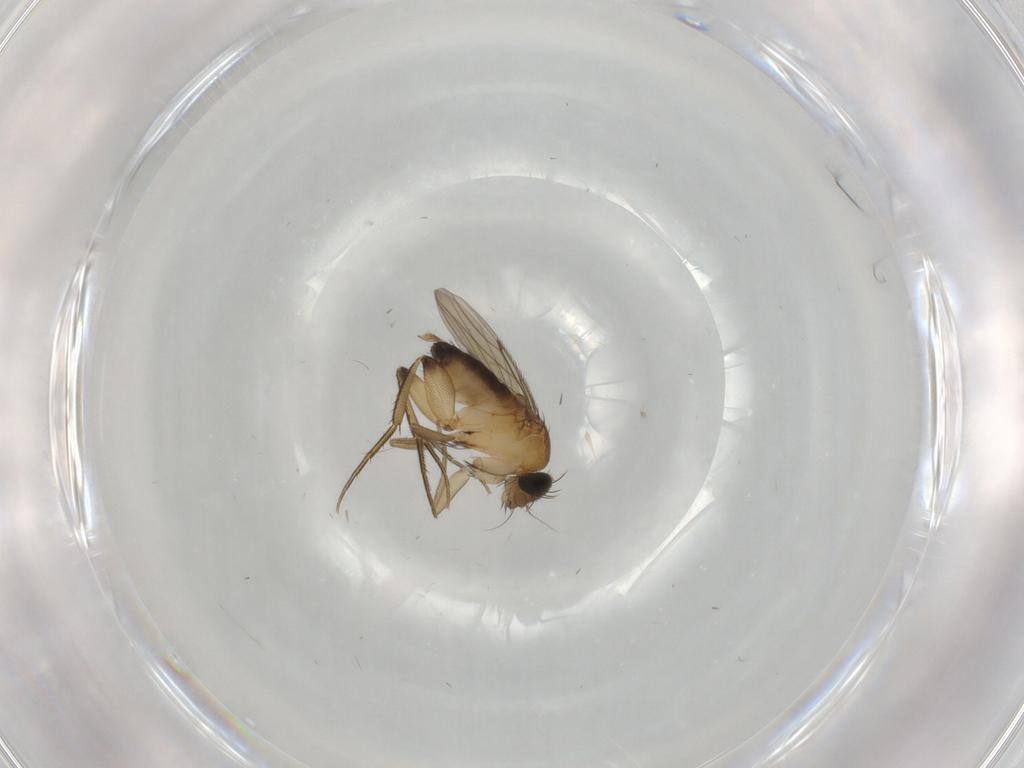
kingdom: Animalia
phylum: Arthropoda
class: Insecta
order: Diptera
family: Phoridae
